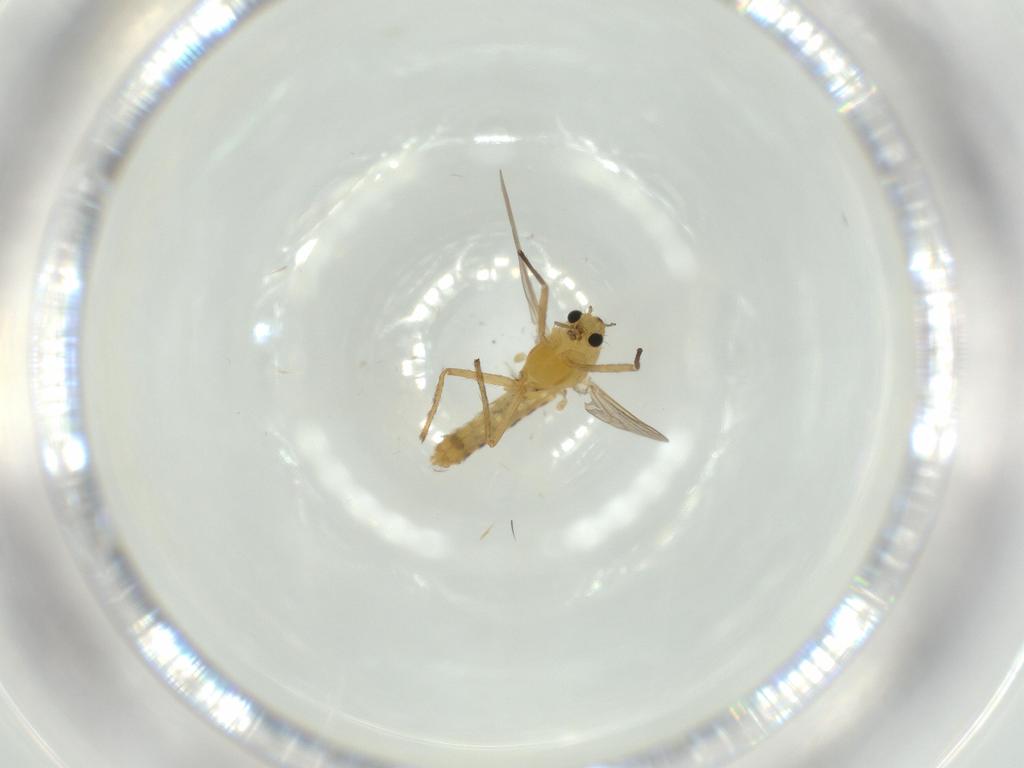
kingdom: Animalia
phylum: Arthropoda
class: Insecta
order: Diptera
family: Chironomidae
